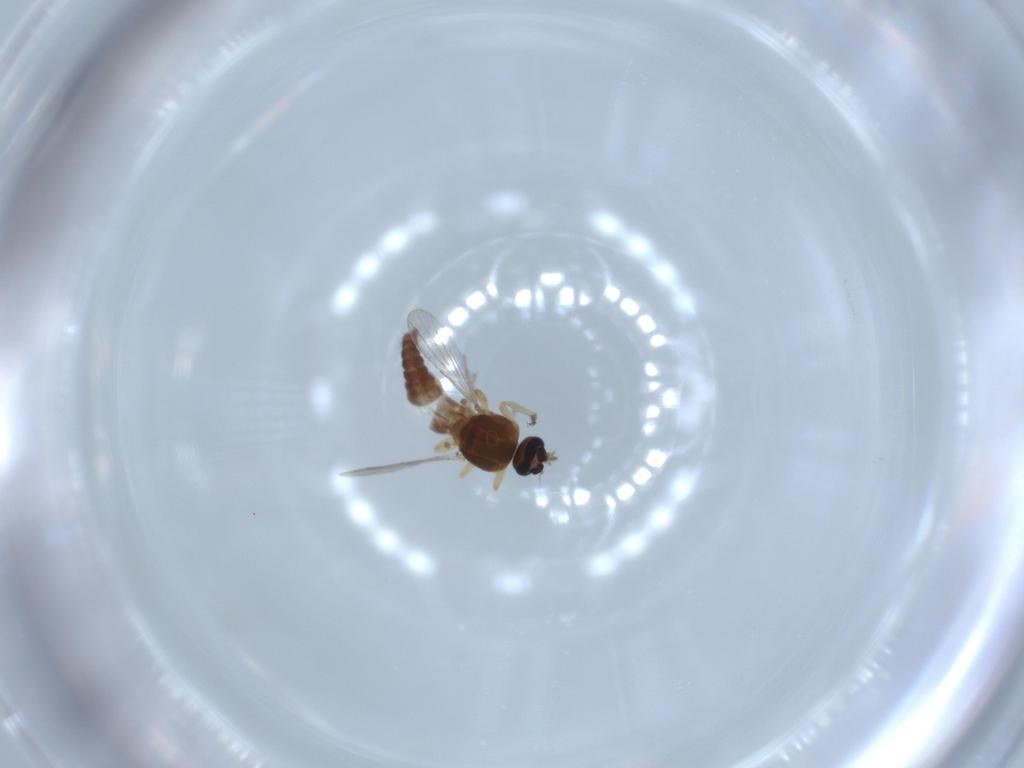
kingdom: Animalia
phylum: Arthropoda
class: Insecta
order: Diptera
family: Ceratopogonidae
